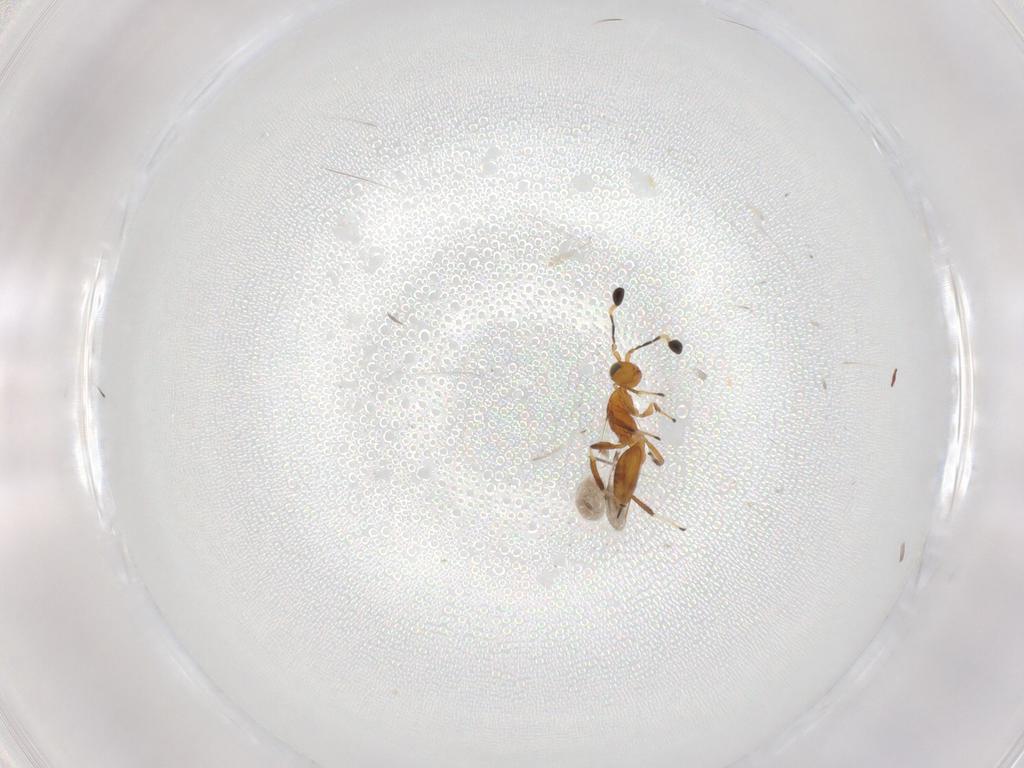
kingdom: Animalia
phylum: Arthropoda
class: Insecta
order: Hymenoptera
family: Mymaridae
